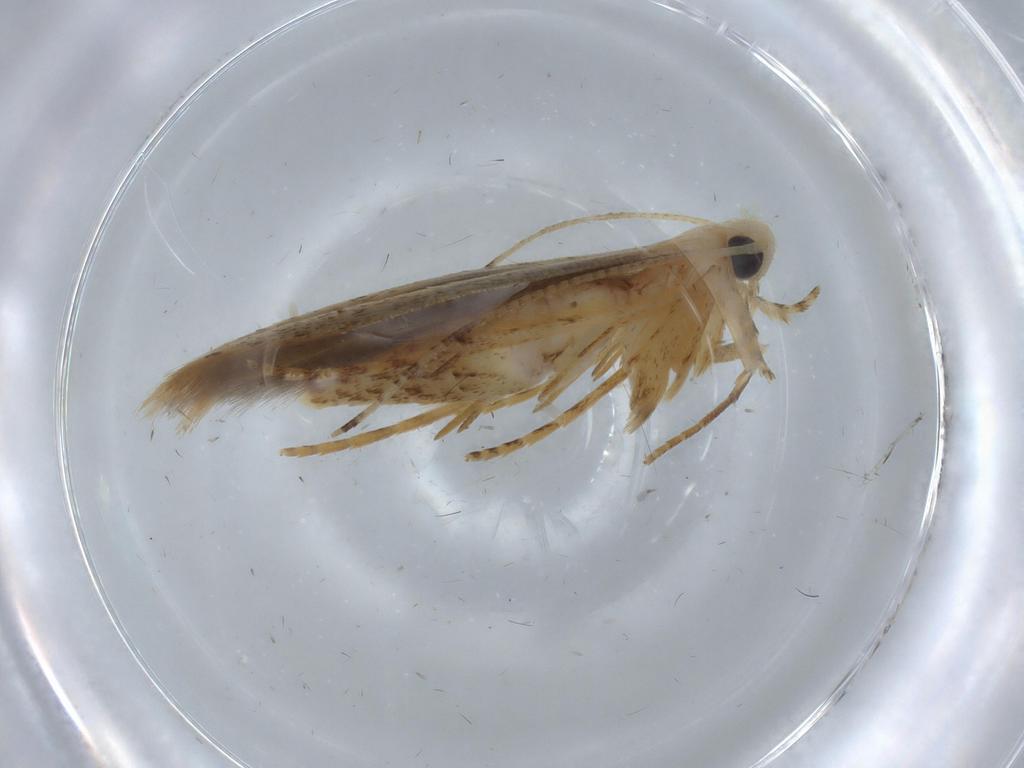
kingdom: Animalia
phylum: Arthropoda
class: Insecta
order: Lepidoptera
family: Batrachedridae
